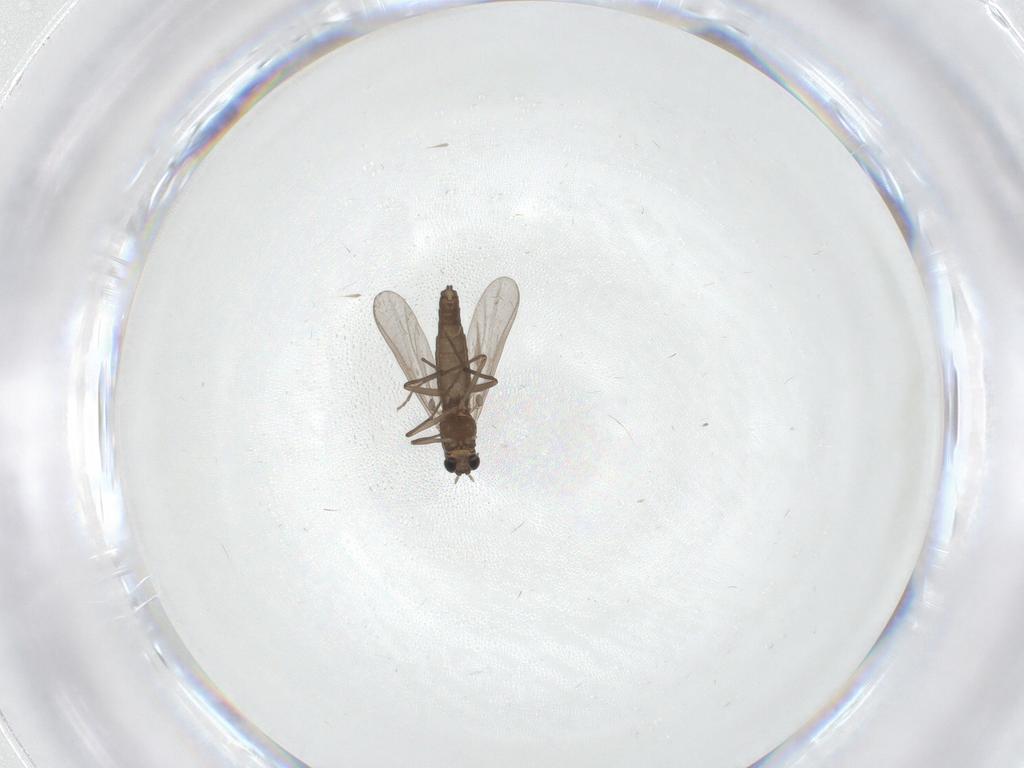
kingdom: Animalia
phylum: Arthropoda
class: Insecta
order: Diptera
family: Chironomidae
